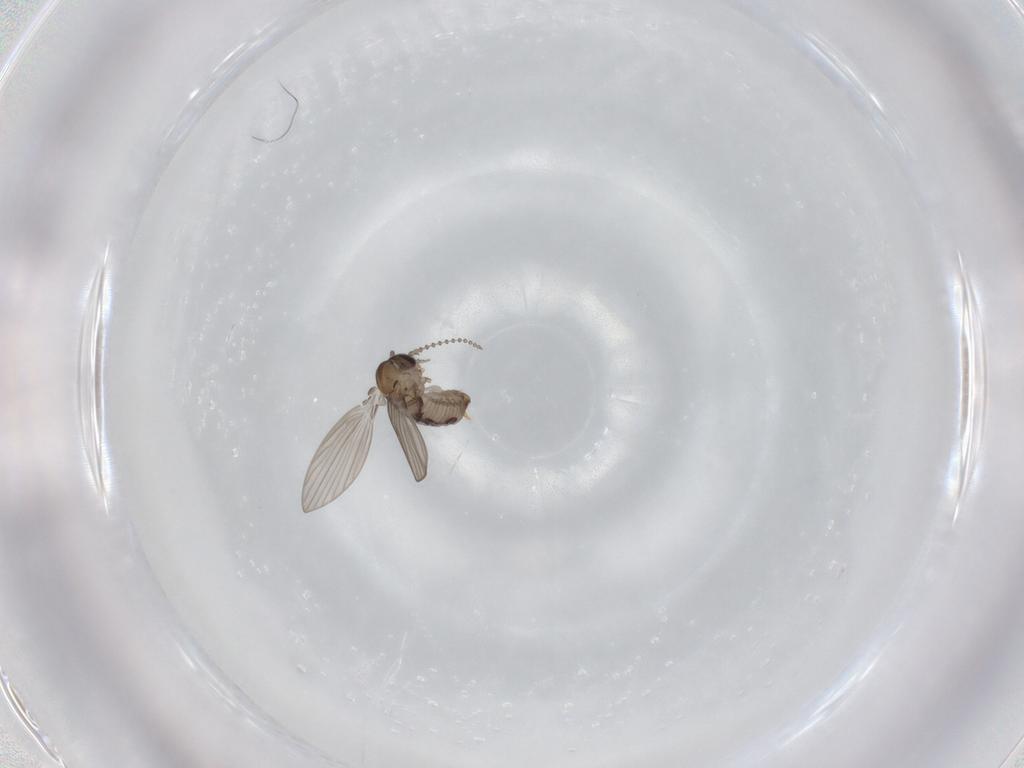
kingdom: Animalia
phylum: Arthropoda
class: Insecta
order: Diptera
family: Psychodidae
